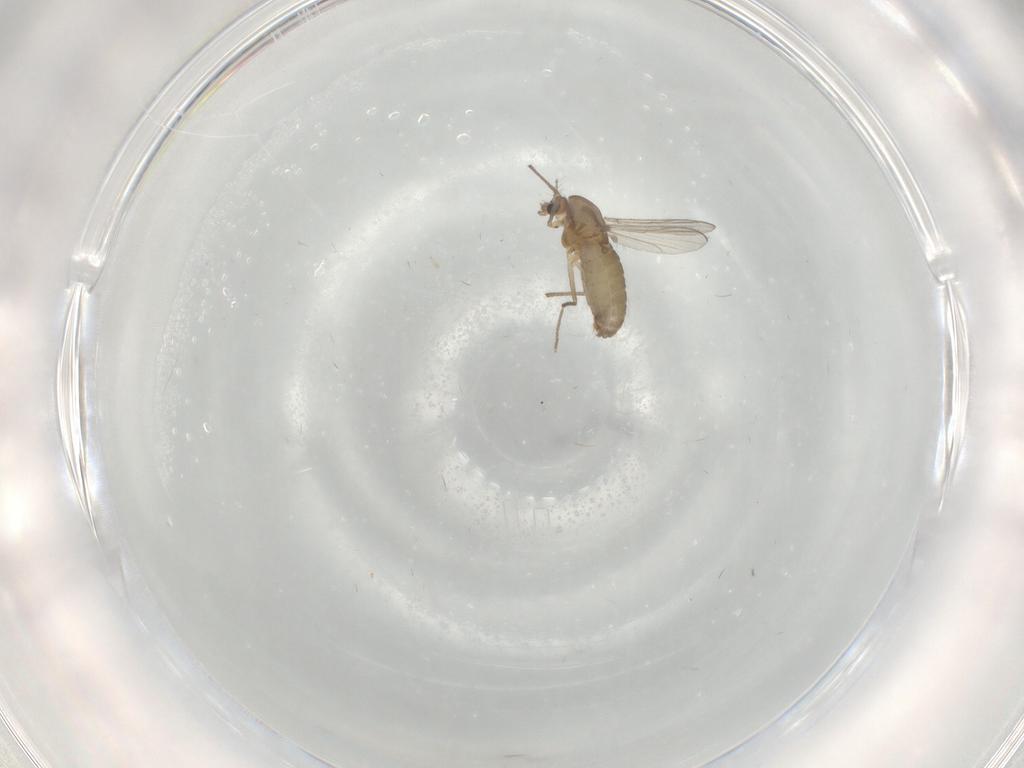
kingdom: Animalia
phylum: Arthropoda
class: Insecta
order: Diptera
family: Chironomidae
